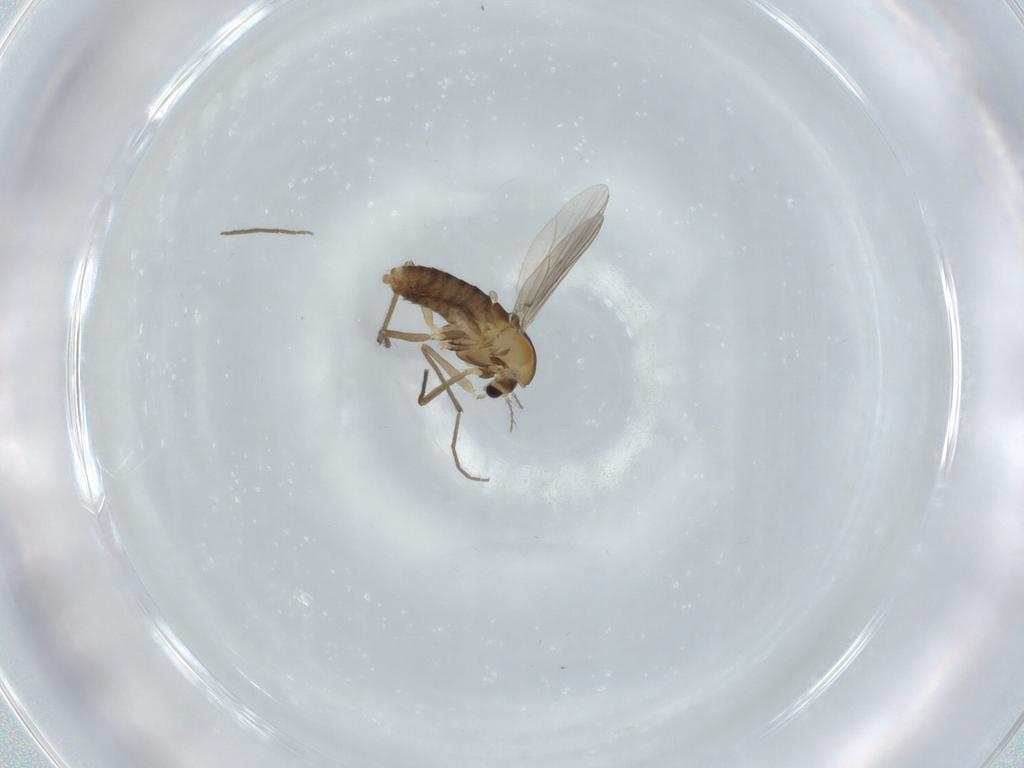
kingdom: Animalia
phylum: Arthropoda
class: Insecta
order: Diptera
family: Chironomidae
